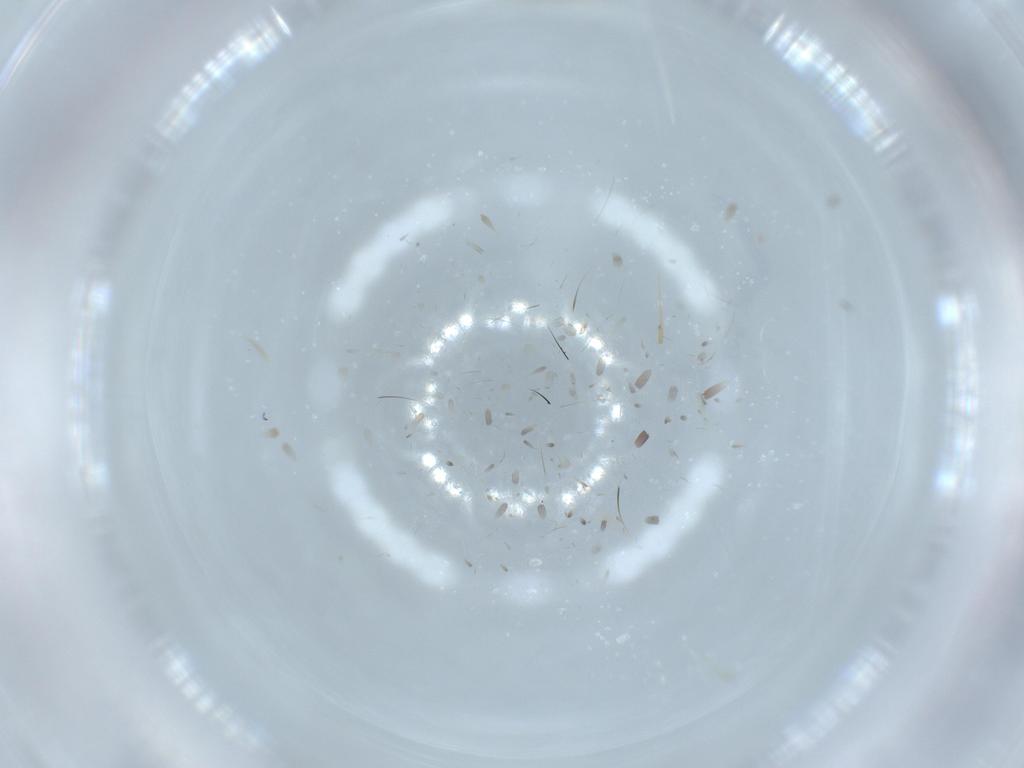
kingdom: Animalia
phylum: Arthropoda
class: Insecta
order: Diptera
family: Chironomidae
